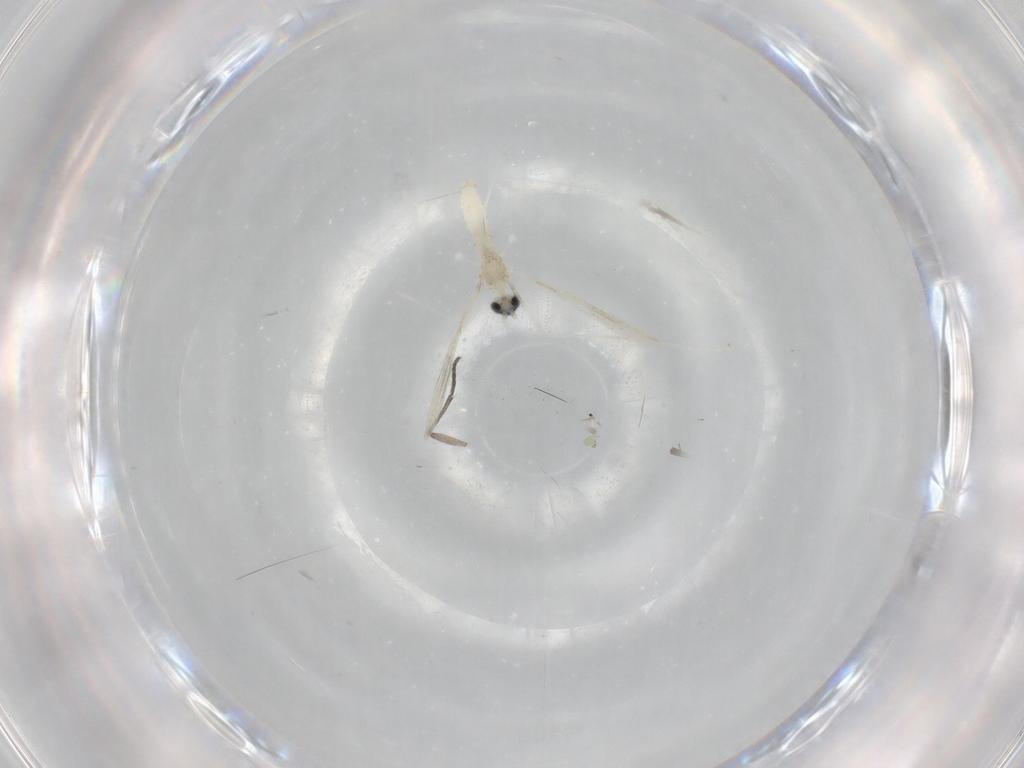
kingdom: Animalia
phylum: Arthropoda
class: Insecta
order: Diptera
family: Cecidomyiidae
